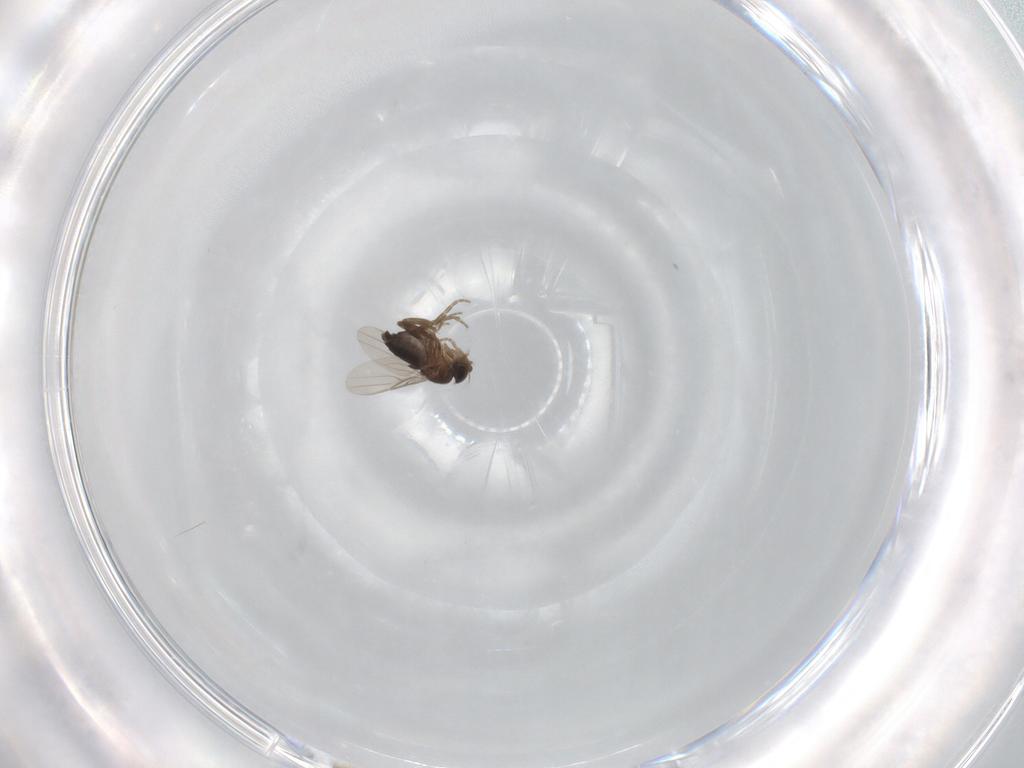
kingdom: Animalia
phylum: Arthropoda
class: Insecta
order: Diptera
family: Phoridae
